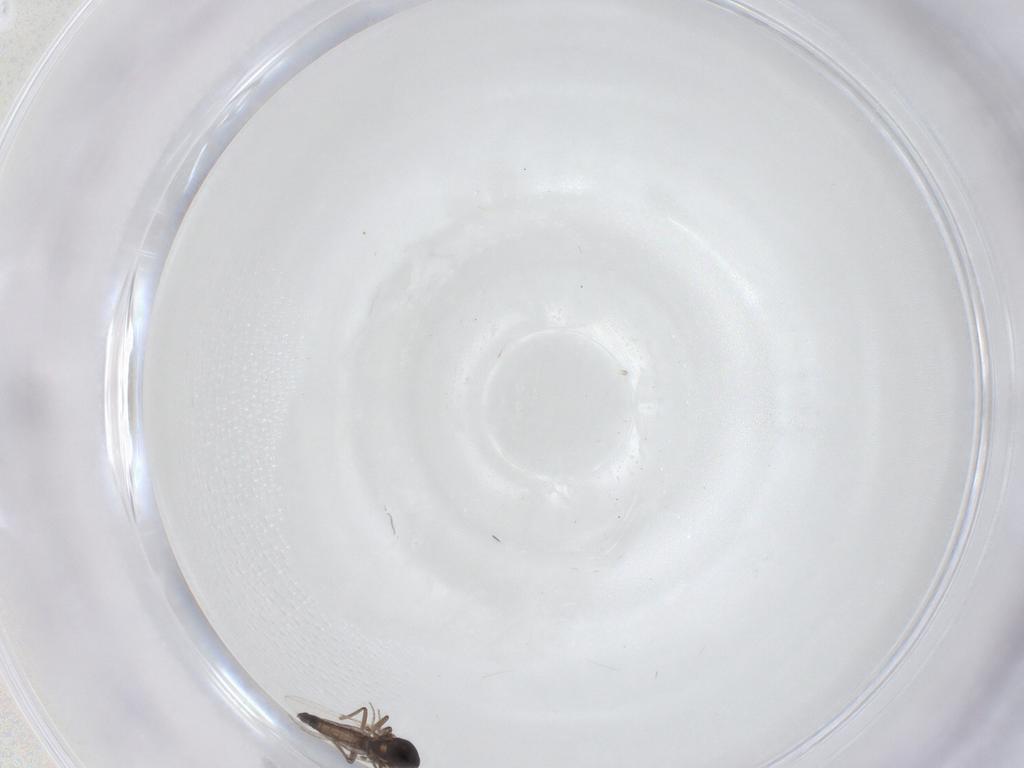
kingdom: Animalia
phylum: Arthropoda
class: Insecta
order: Diptera
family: Ceratopogonidae
